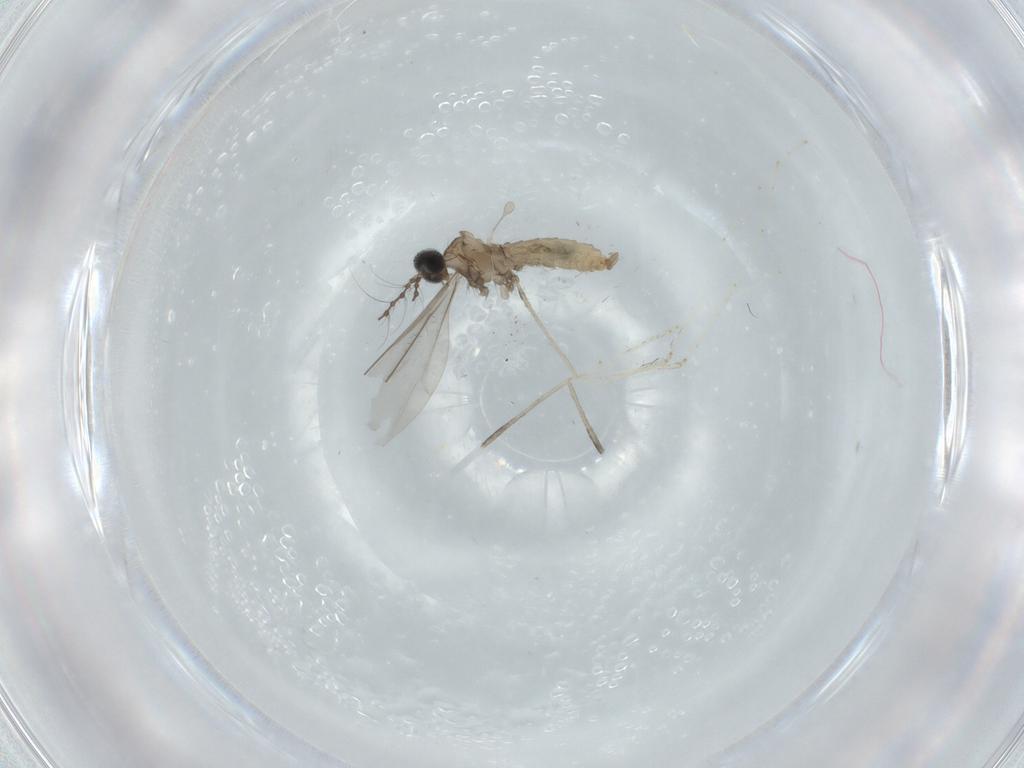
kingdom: Animalia
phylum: Arthropoda
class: Insecta
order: Diptera
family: Cecidomyiidae
